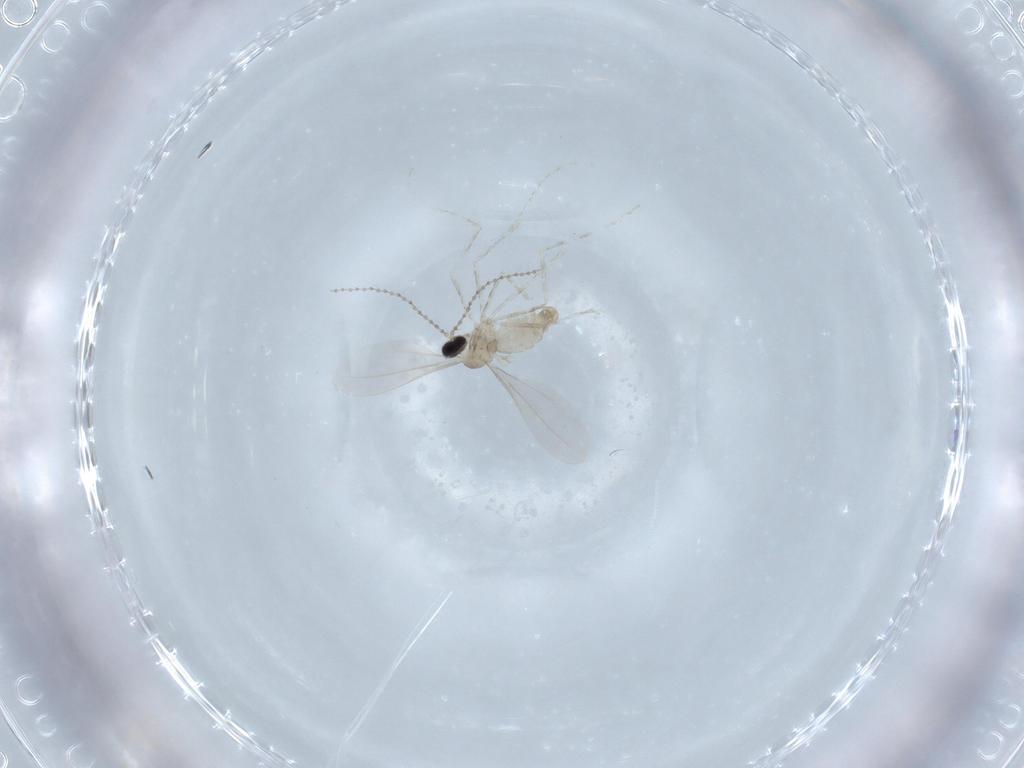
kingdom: Animalia
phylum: Arthropoda
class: Insecta
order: Diptera
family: Cecidomyiidae
